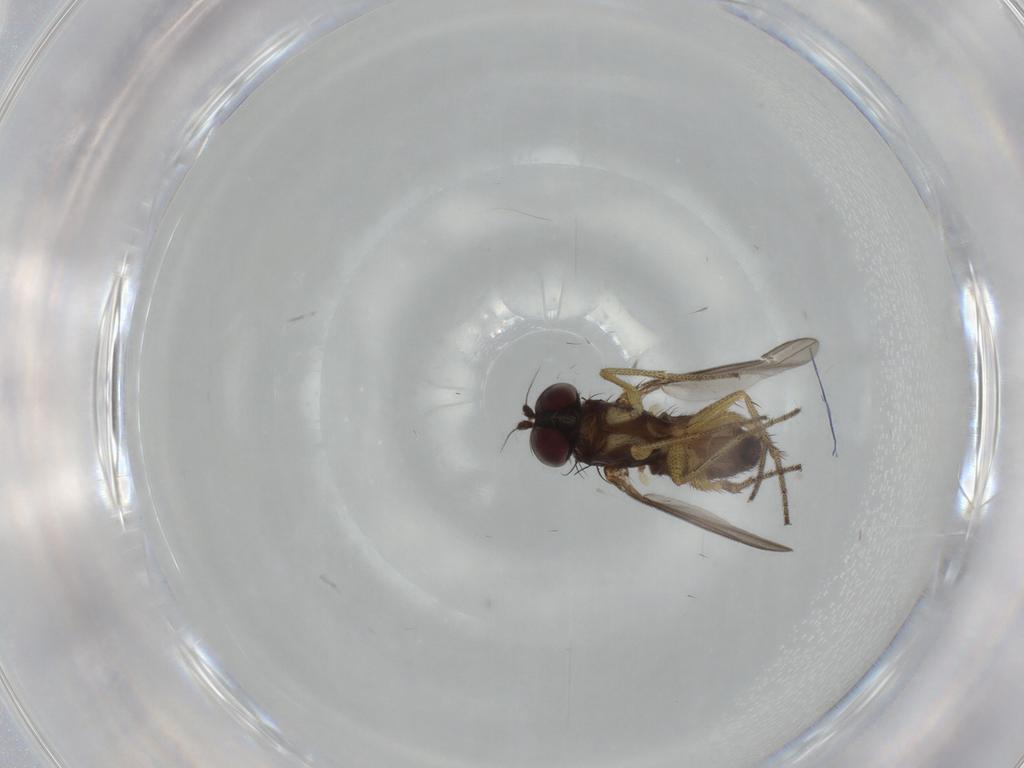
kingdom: Animalia
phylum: Arthropoda
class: Insecta
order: Diptera
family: Dolichopodidae
